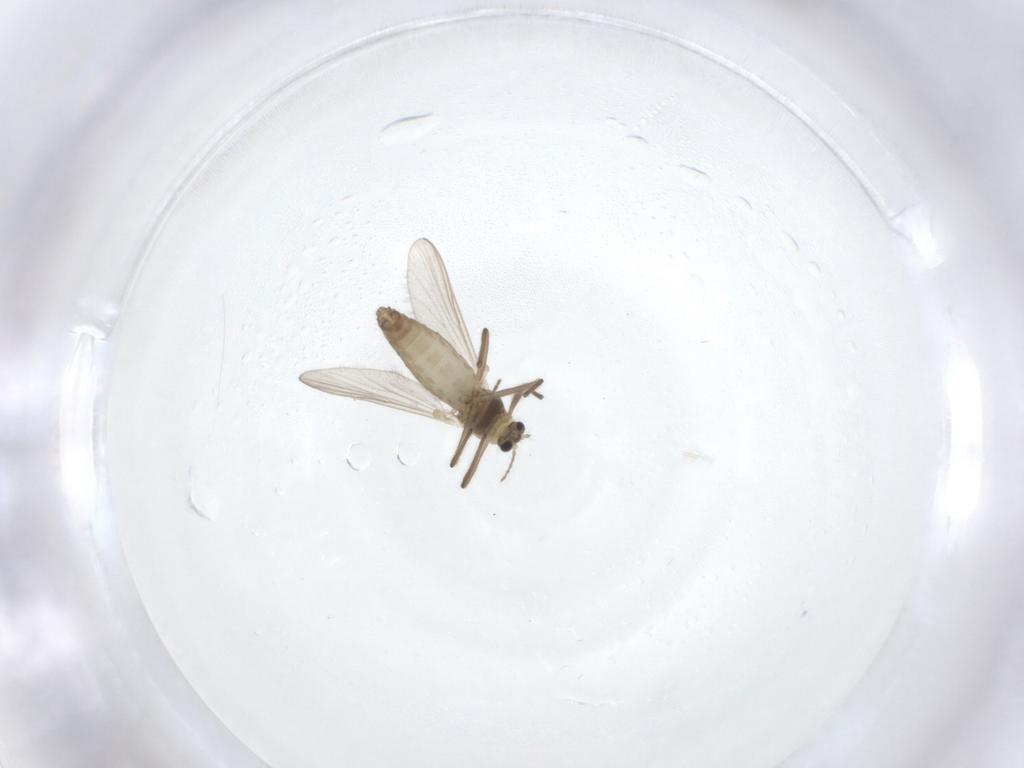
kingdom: Animalia
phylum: Arthropoda
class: Insecta
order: Diptera
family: Chironomidae
